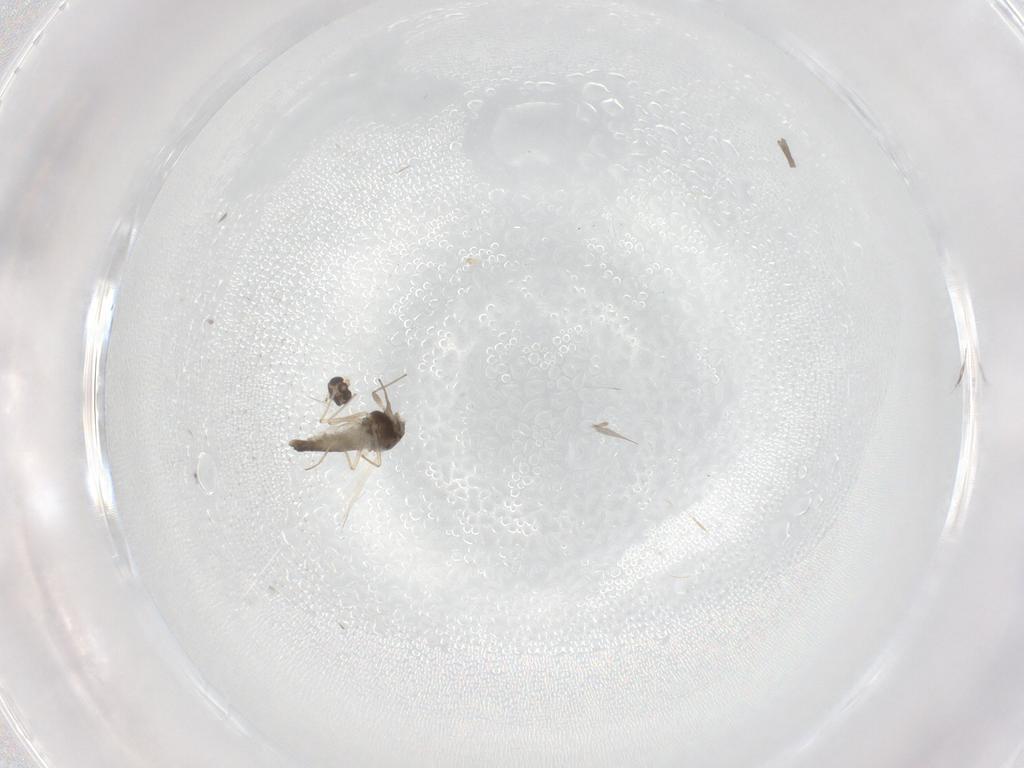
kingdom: Animalia
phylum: Arthropoda
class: Insecta
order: Diptera
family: Chironomidae
